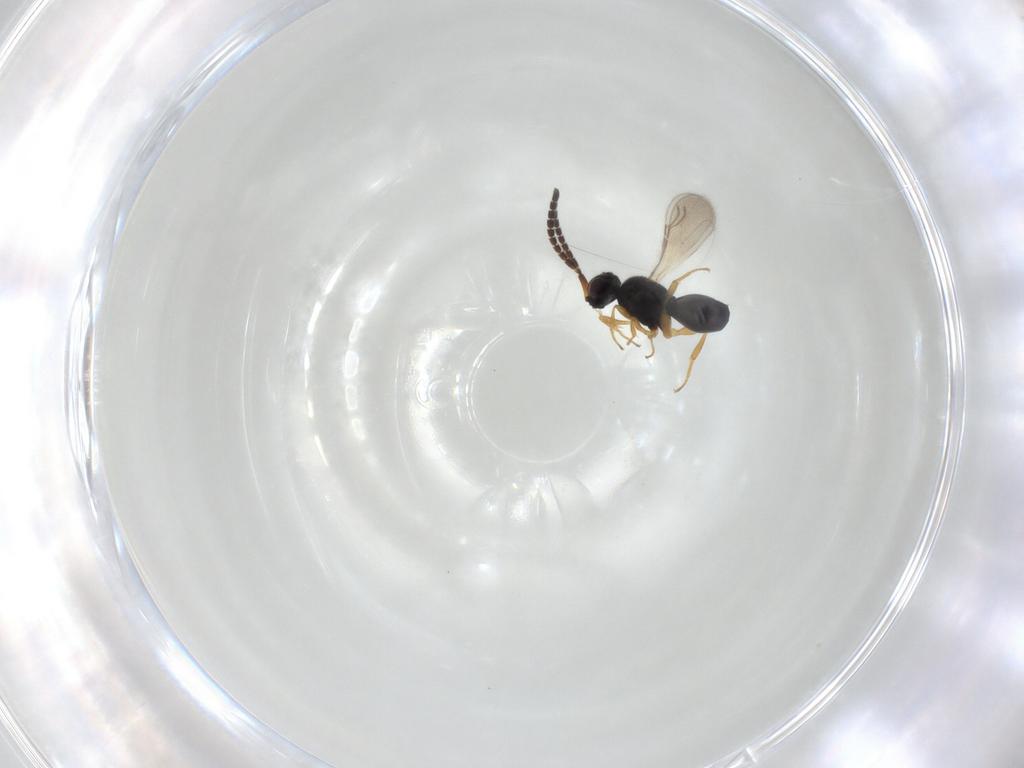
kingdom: Animalia
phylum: Arthropoda
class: Insecta
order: Hymenoptera
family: Ceraphronidae
